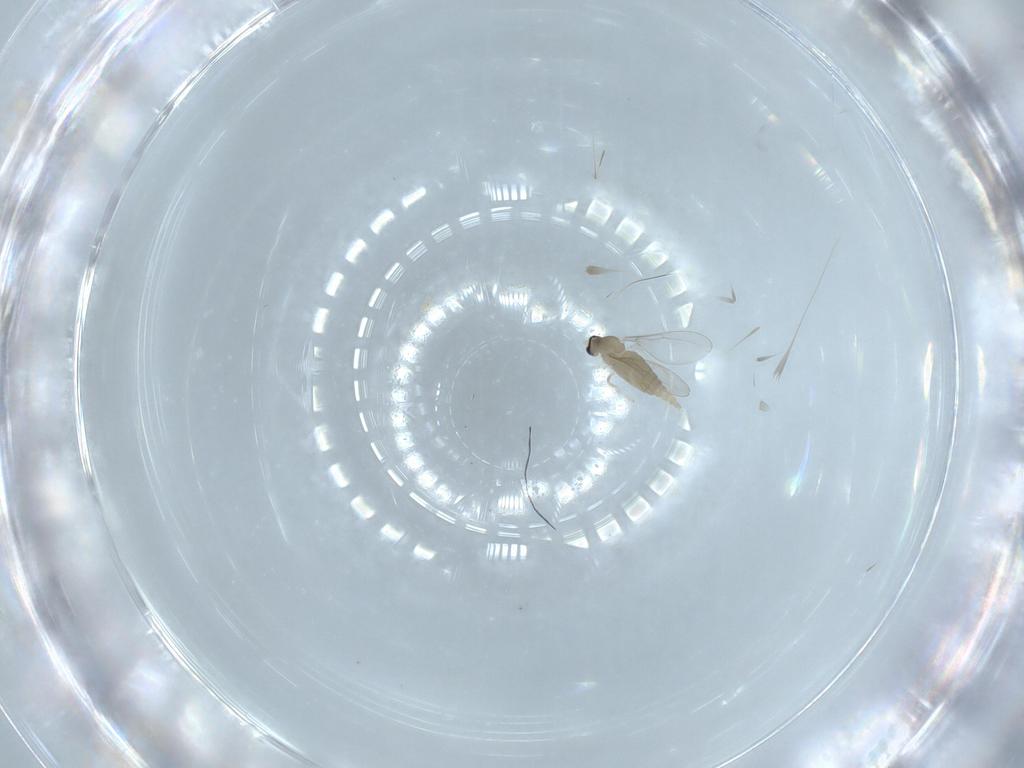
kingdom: Animalia
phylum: Arthropoda
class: Insecta
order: Diptera
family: Cecidomyiidae
